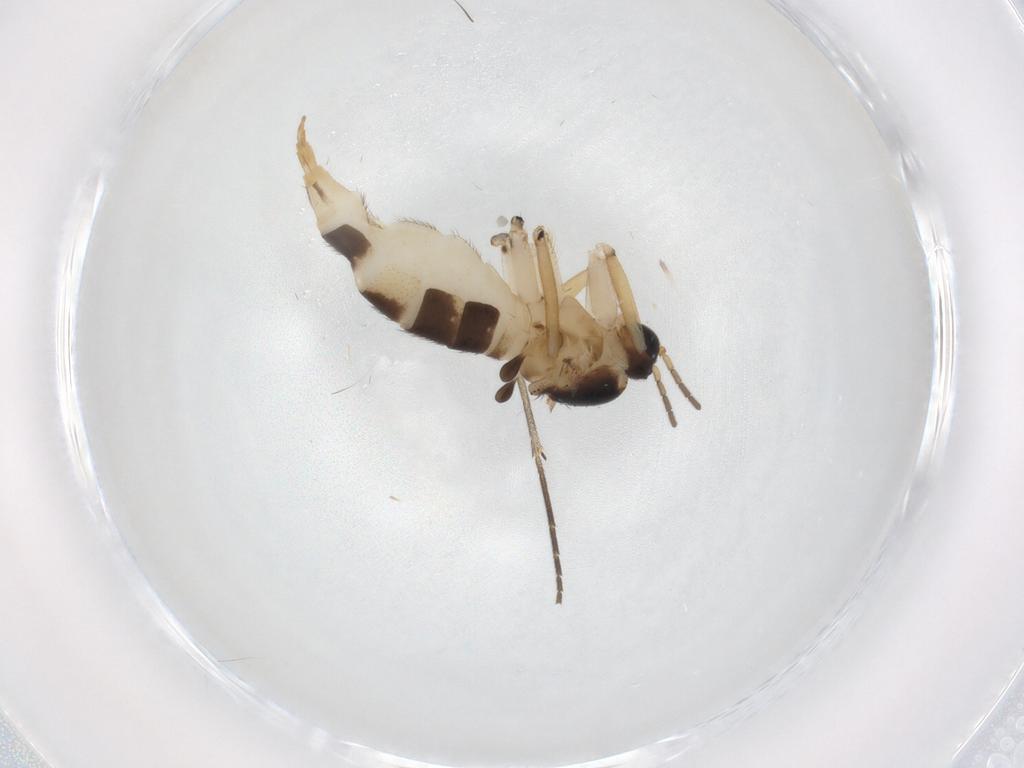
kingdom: Animalia
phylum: Arthropoda
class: Insecta
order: Diptera
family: Sciaridae
